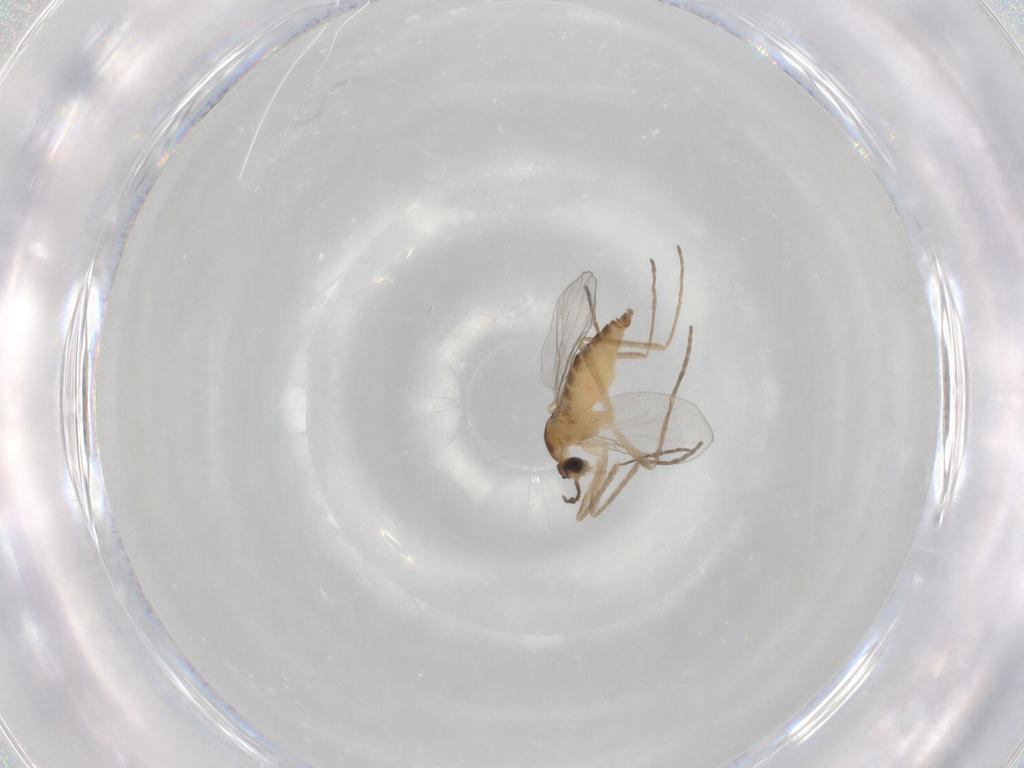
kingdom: Animalia
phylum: Arthropoda
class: Insecta
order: Diptera
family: Cecidomyiidae
